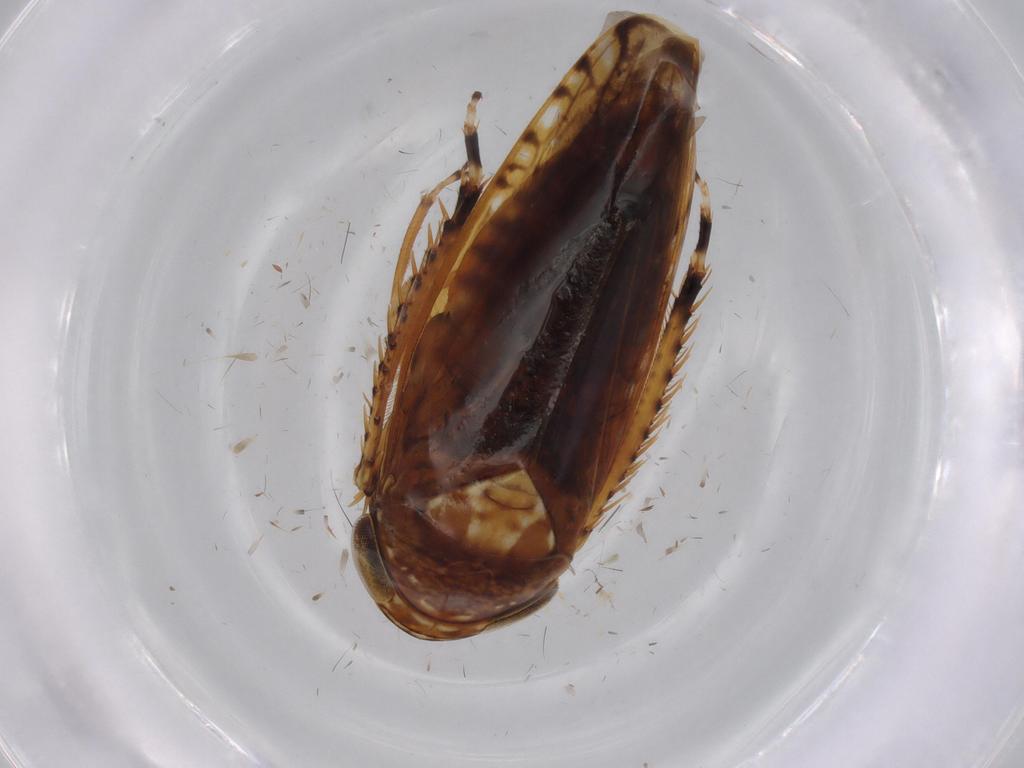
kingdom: Animalia
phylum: Arthropoda
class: Insecta
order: Hemiptera
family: Cicadellidae
